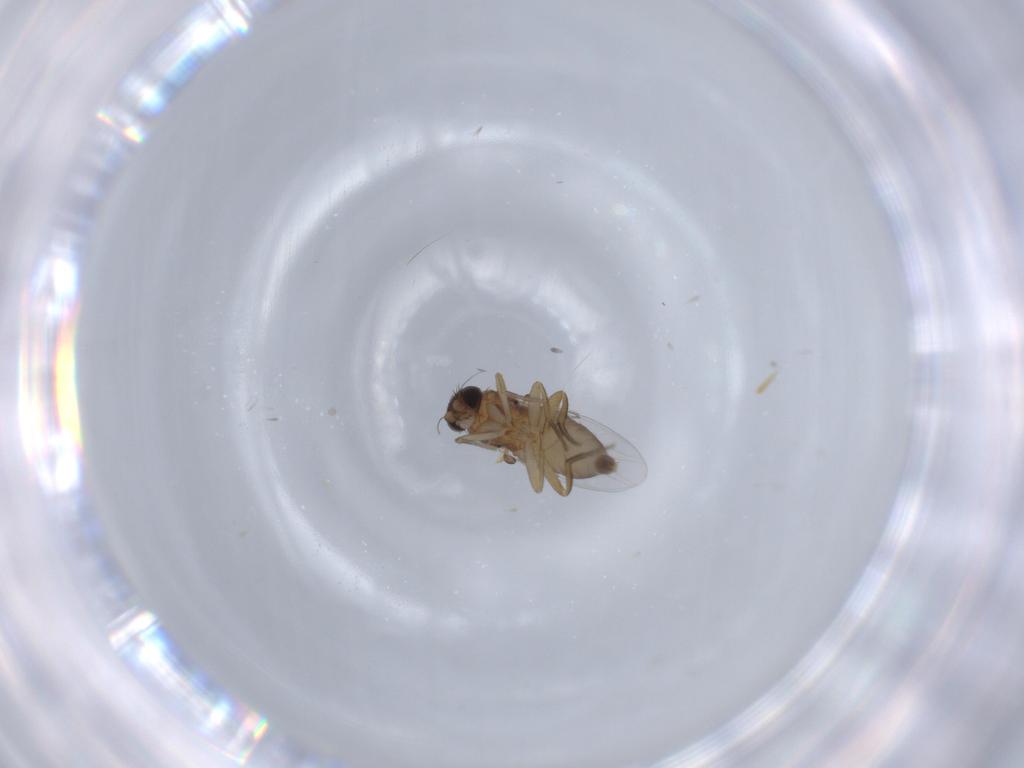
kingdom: Animalia
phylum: Arthropoda
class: Insecta
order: Diptera
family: Phoridae
